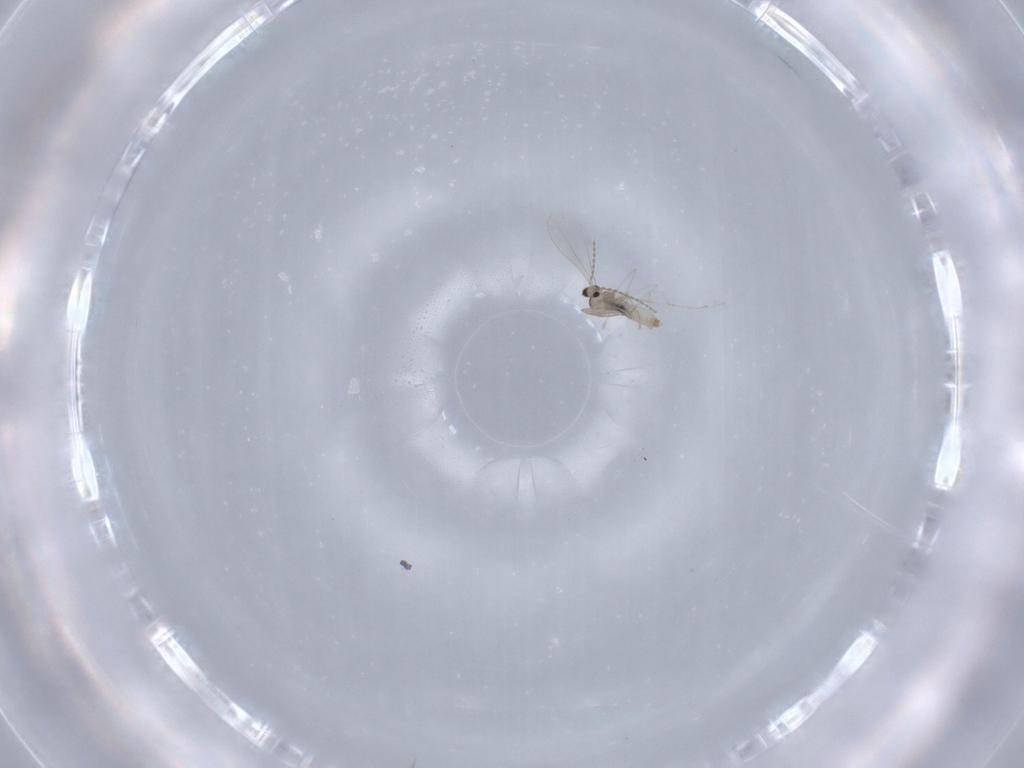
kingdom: Animalia
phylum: Arthropoda
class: Insecta
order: Diptera
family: Cecidomyiidae
